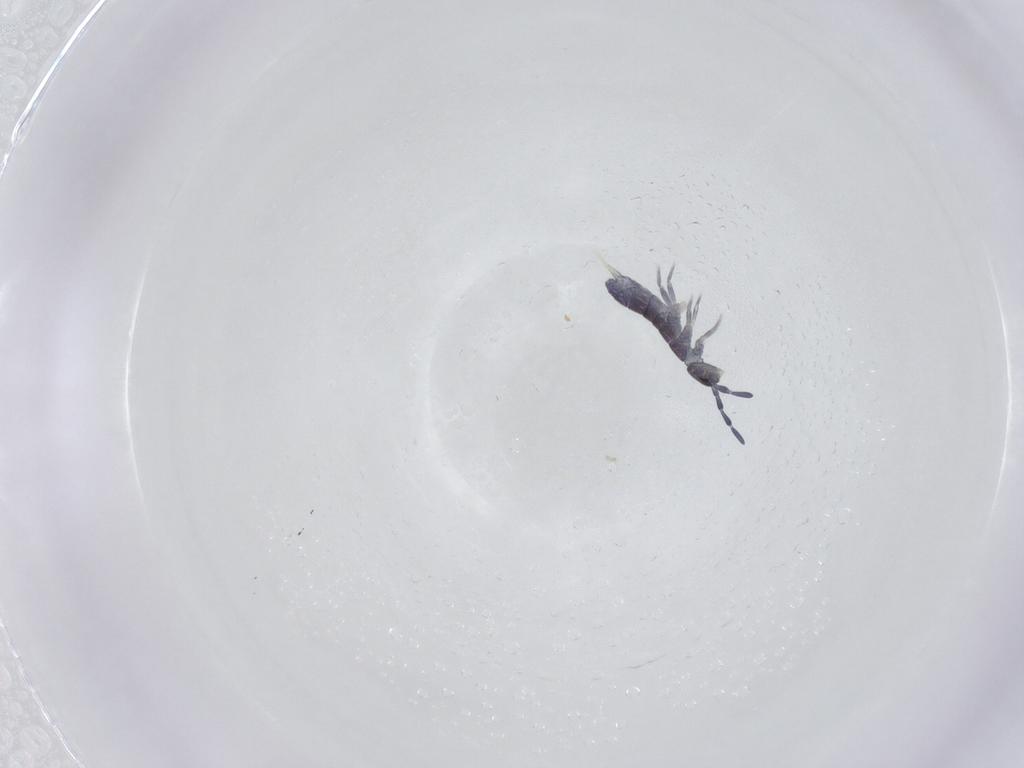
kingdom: Animalia
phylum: Arthropoda
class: Collembola
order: Entomobryomorpha
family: Isotomidae
